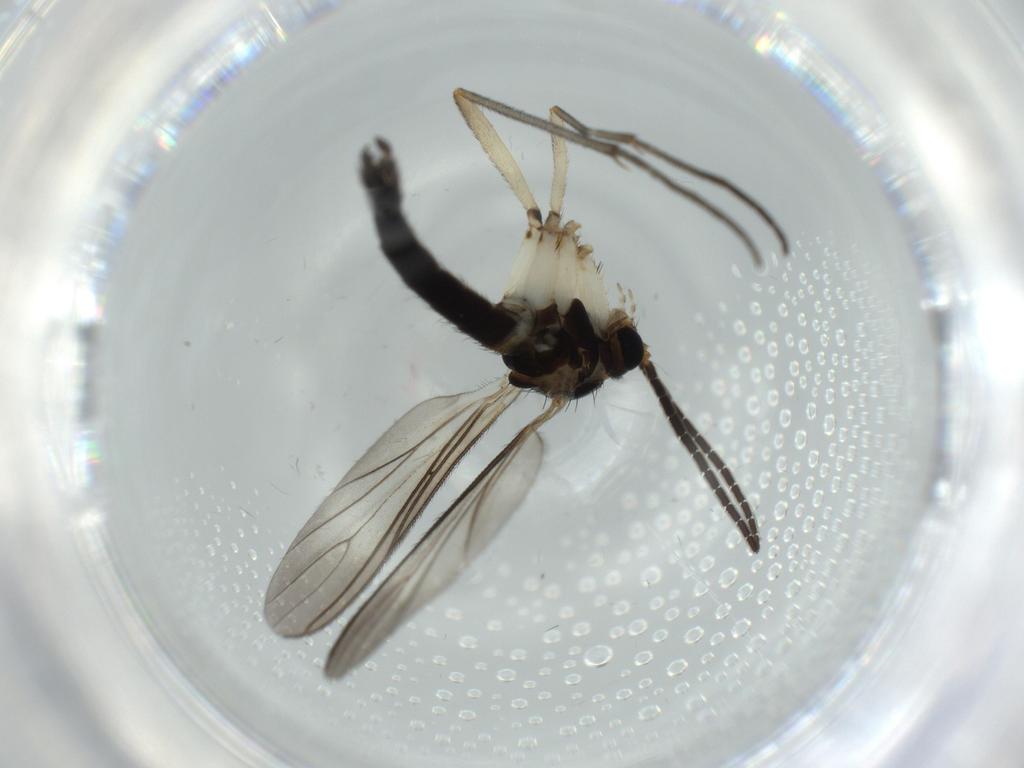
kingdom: Animalia
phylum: Arthropoda
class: Insecta
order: Diptera
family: Sciaridae
